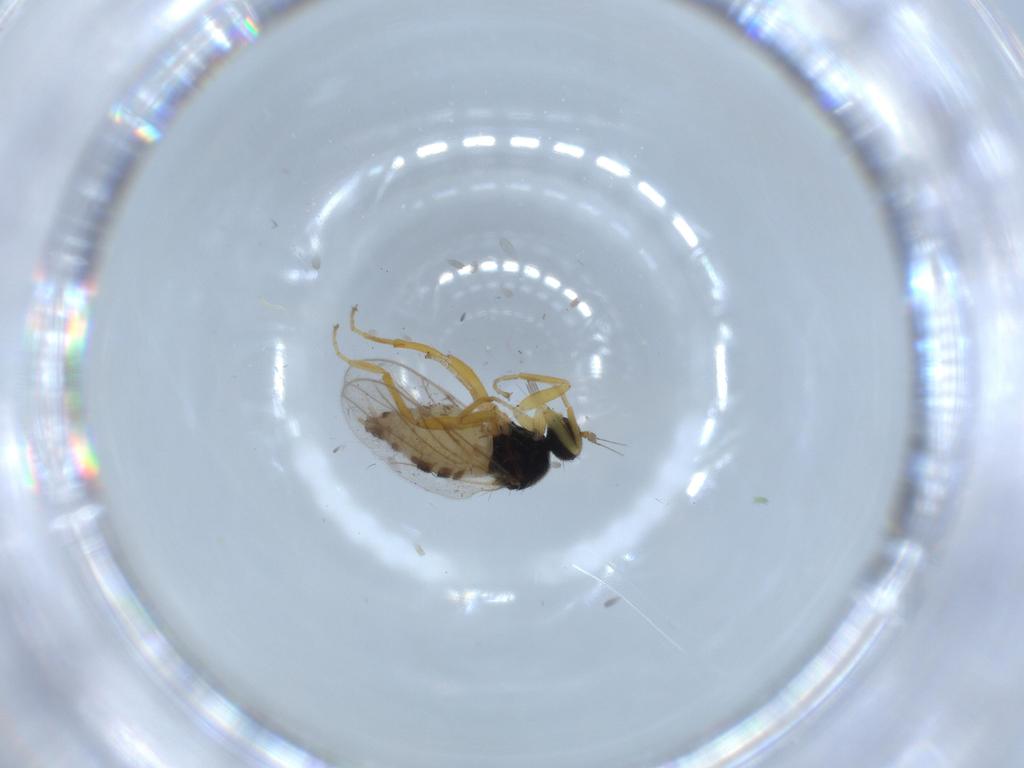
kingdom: Animalia
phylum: Arthropoda
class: Insecta
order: Diptera
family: Hybotidae
